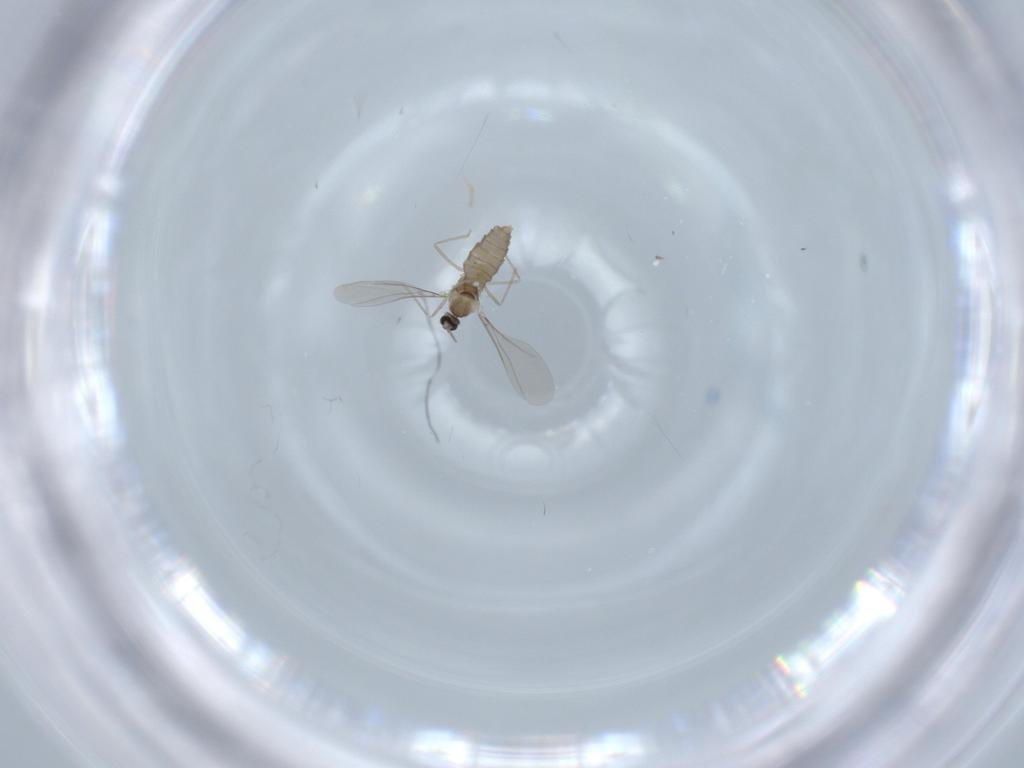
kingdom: Animalia
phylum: Arthropoda
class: Insecta
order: Diptera
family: Cecidomyiidae
